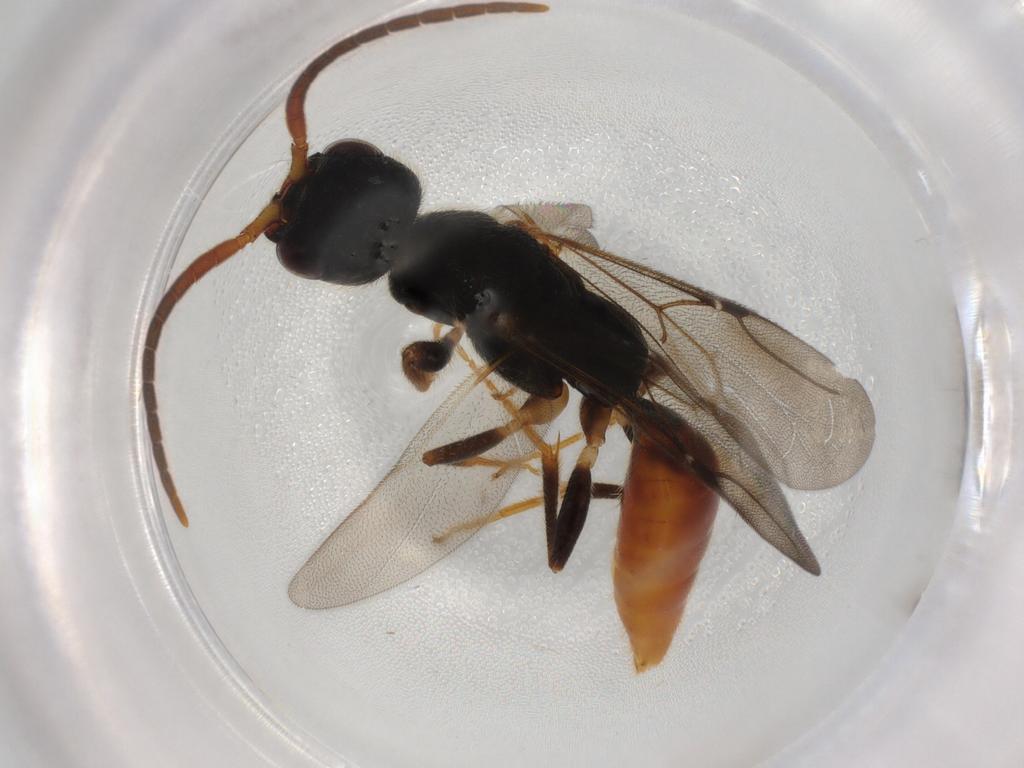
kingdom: Animalia
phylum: Arthropoda
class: Insecta
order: Hymenoptera
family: Bethylidae
